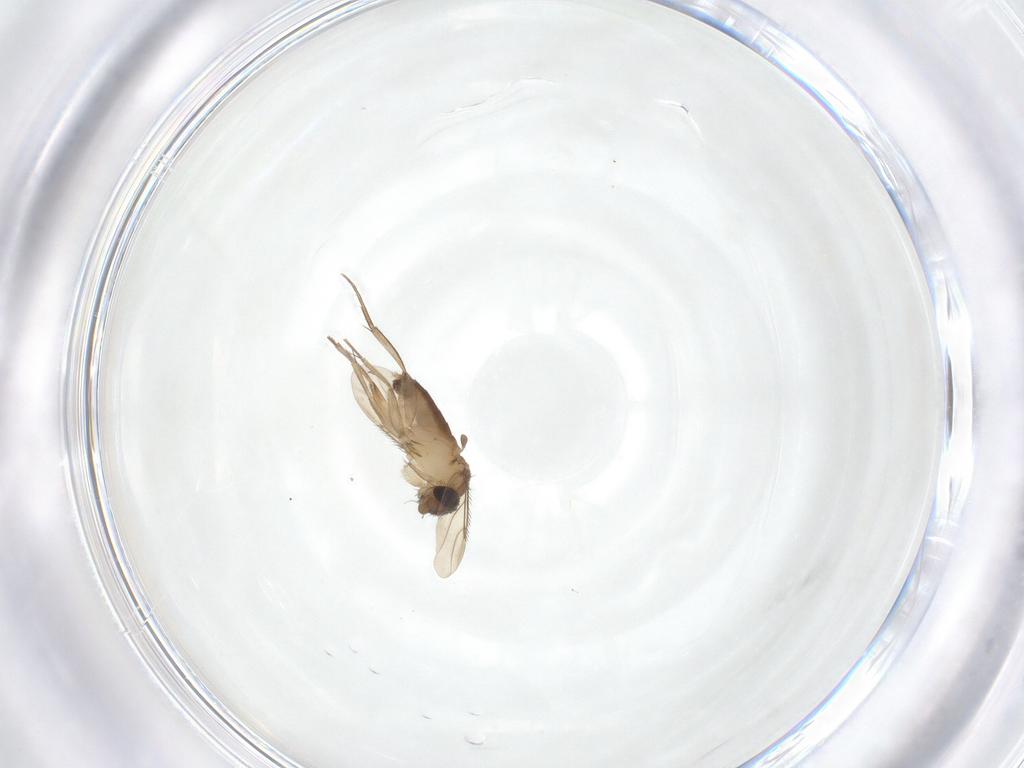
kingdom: Animalia
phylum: Arthropoda
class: Insecta
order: Diptera
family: Phoridae
